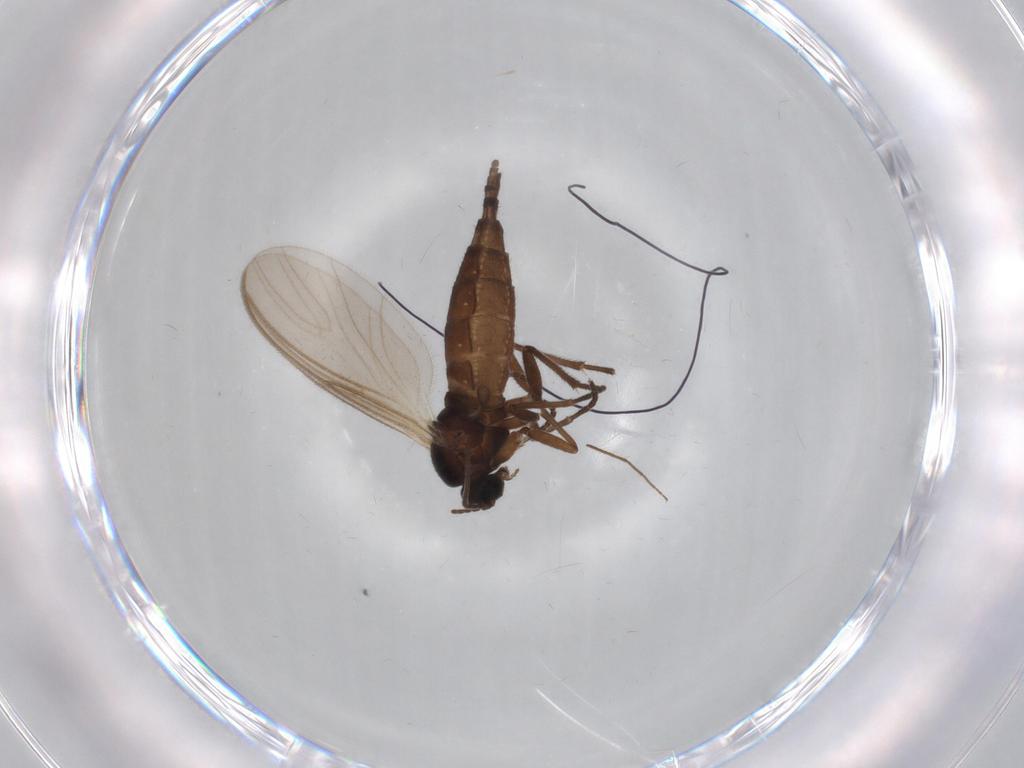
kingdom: Animalia
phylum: Arthropoda
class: Insecta
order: Diptera
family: Sciaridae
